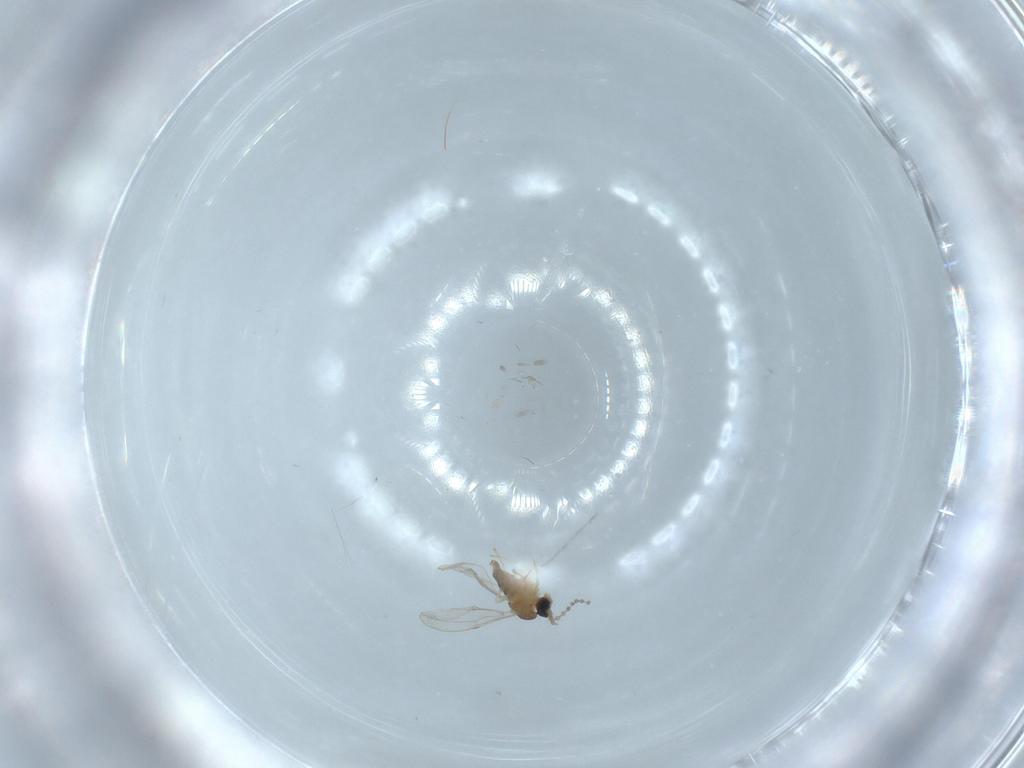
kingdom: Animalia
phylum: Arthropoda
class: Insecta
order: Diptera
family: Cecidomyiidae
